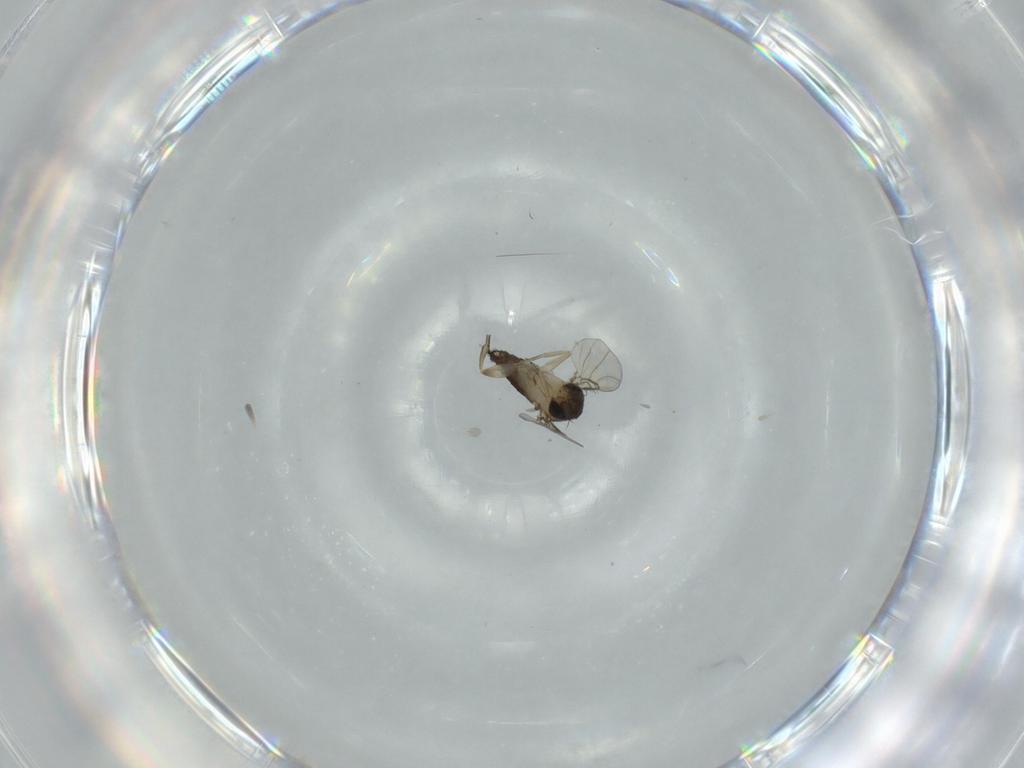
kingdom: Animalia
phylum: Arthropoda
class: Insecta
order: Diptera
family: Phoridae
